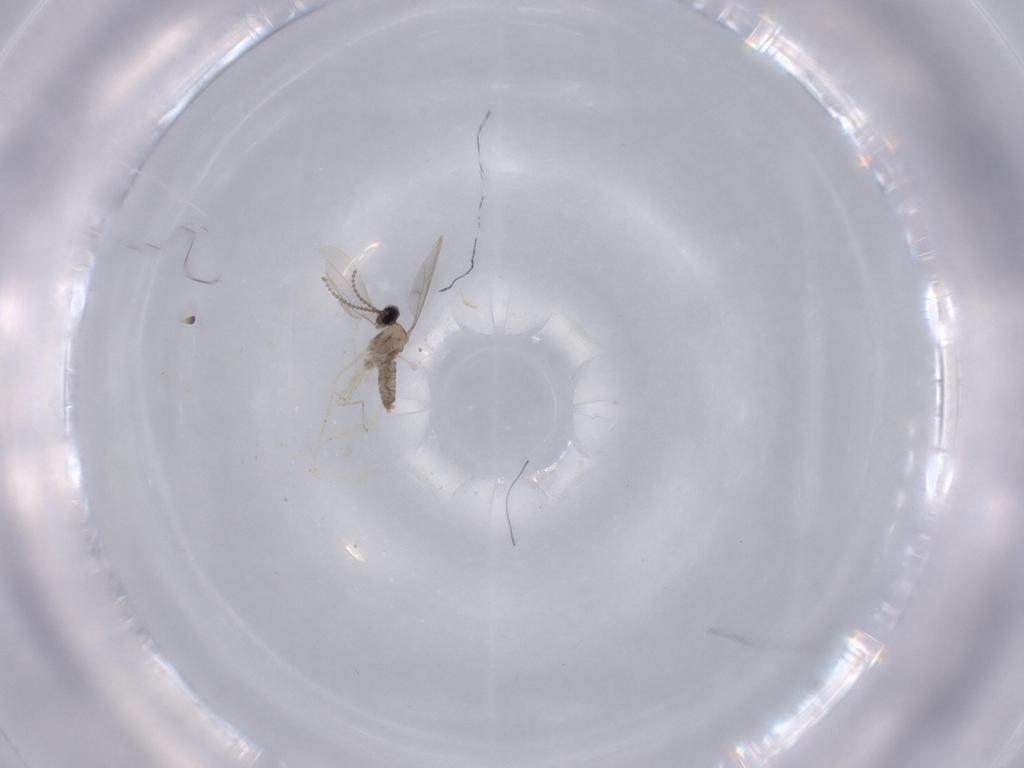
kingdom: Animalia
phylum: Arthropoda
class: Insecta
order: Diptera
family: Cecidomyiidae
